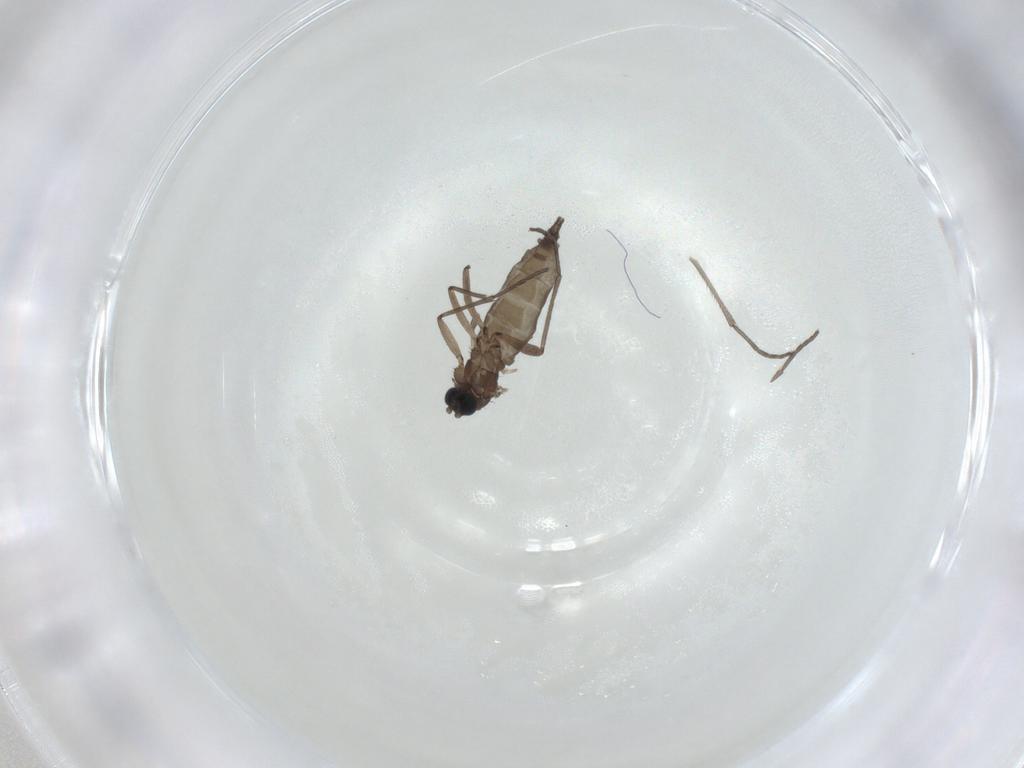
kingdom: Animalia
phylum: Arthropoda
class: Insecta
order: Diptera
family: Sciaridae
